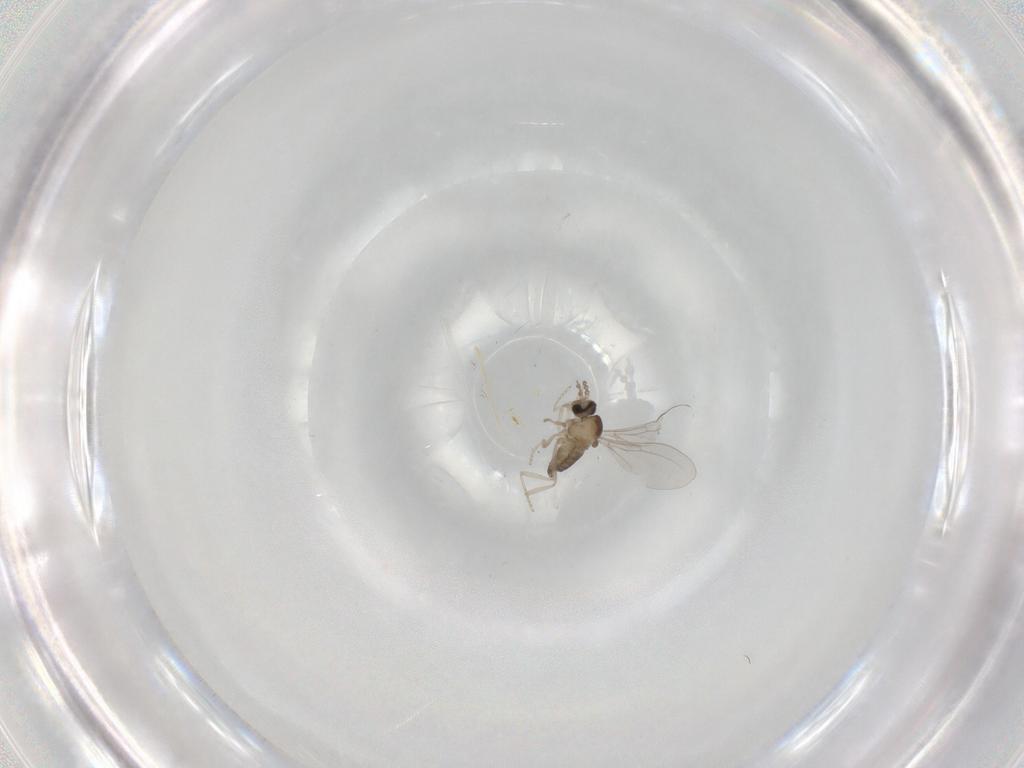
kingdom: Animalia
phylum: Arthropoda
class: Insecta
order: Diptera
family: Cecidomyiidae
